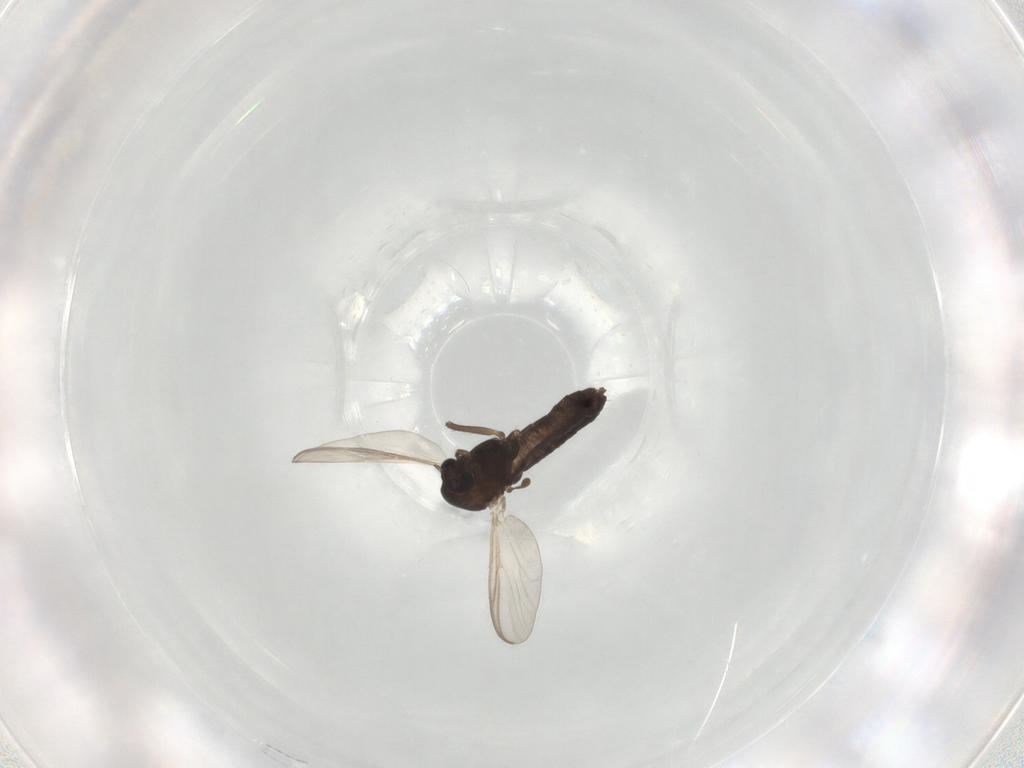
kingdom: Animalia
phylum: Arthropoda
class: Insecta
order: Diptera
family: Chironomidae
